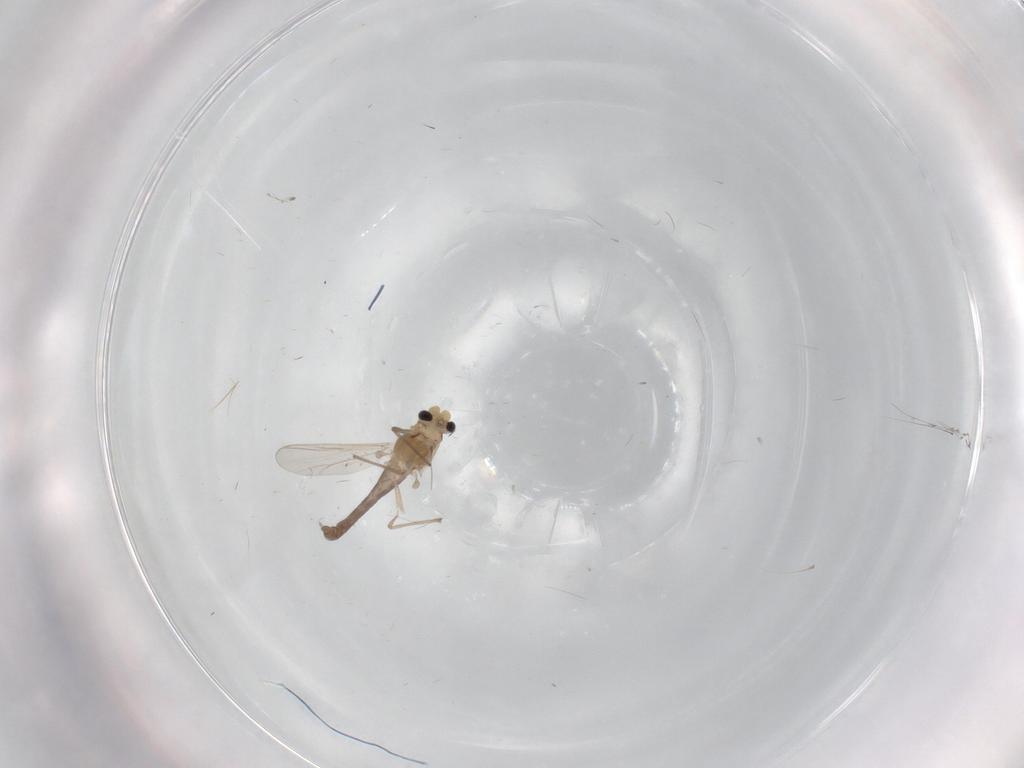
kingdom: Animalia
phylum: Arthropoda
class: Insecta
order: Diptera
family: Chironomidae
